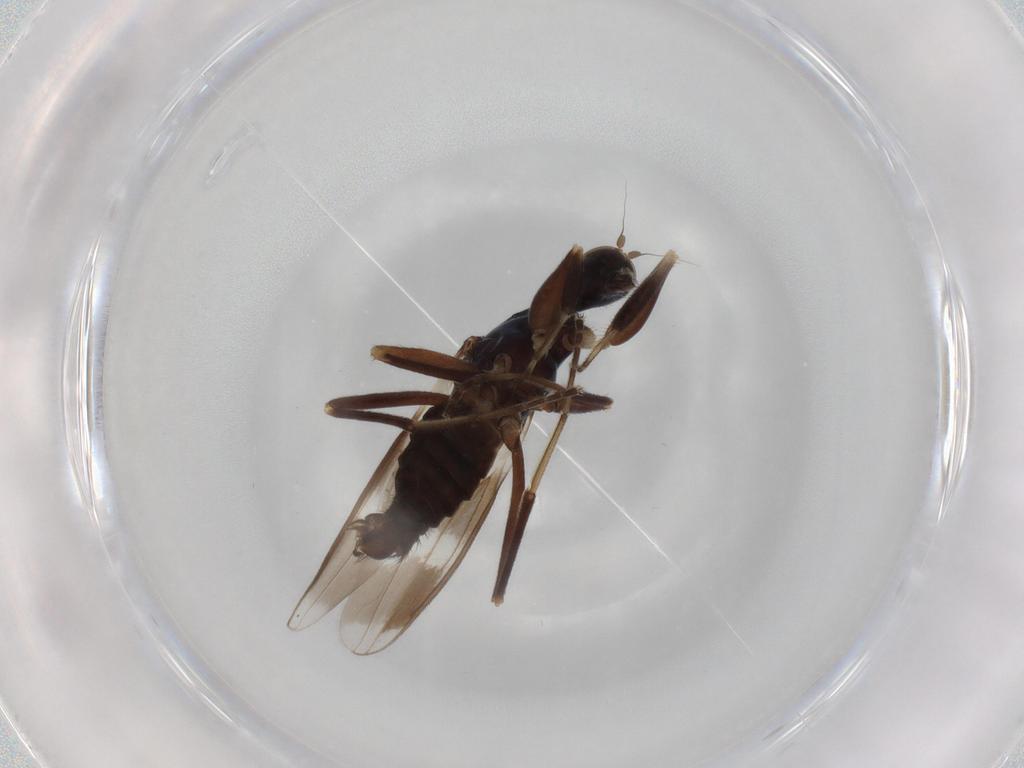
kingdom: Animalia
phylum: Arthropoda
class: Insecta
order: Diptera
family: Hybotidae
